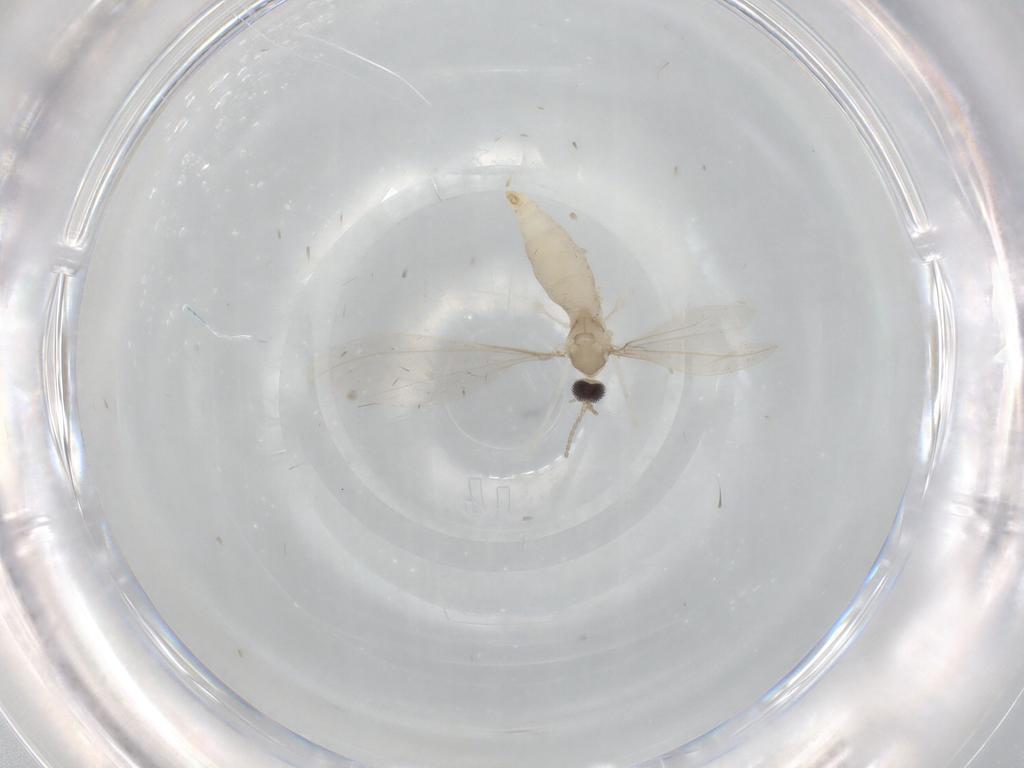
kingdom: Animalia
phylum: Arthropoda
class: Insecta
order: Diptera
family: Cecidomyiidae
